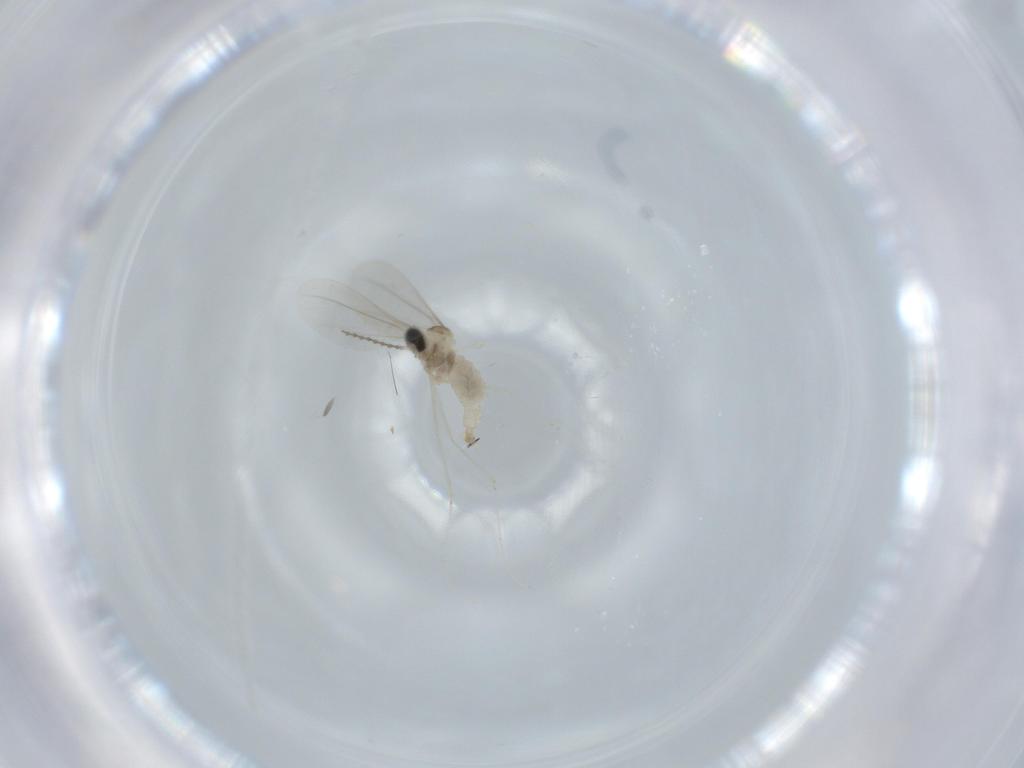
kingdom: Animalia
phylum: Arthropoda
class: Insecta
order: Diptera
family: Cecidomyiidae
